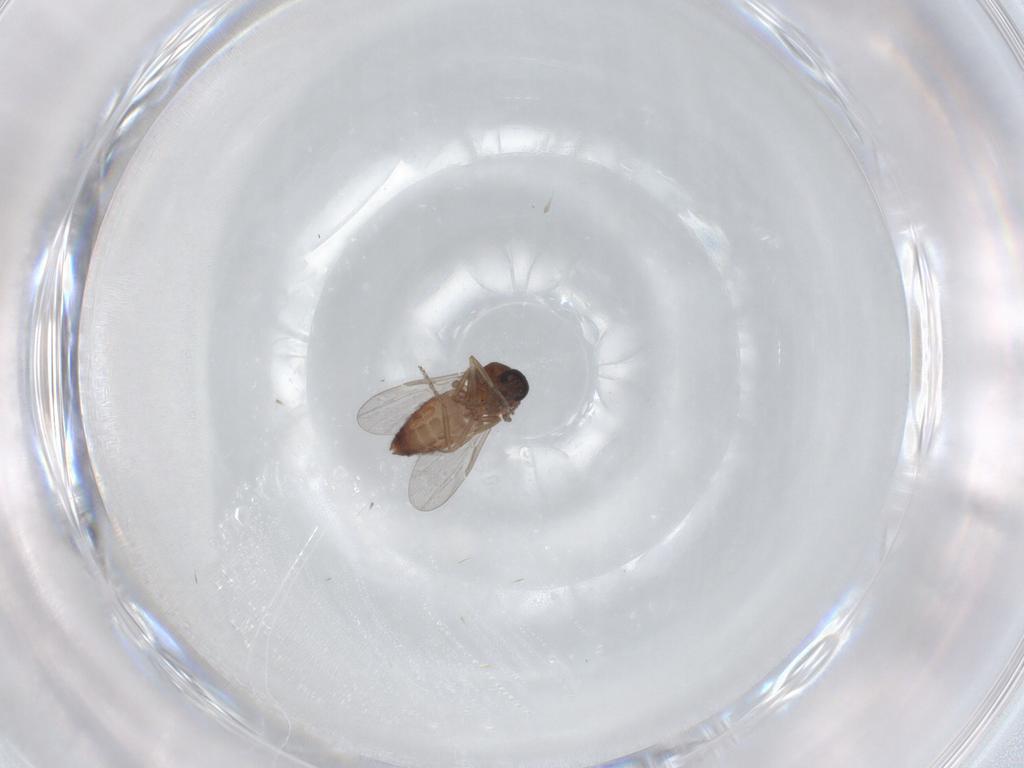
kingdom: Animalia
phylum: Arthropoda
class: Insecta
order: Diptera
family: Ceratopogonidae
